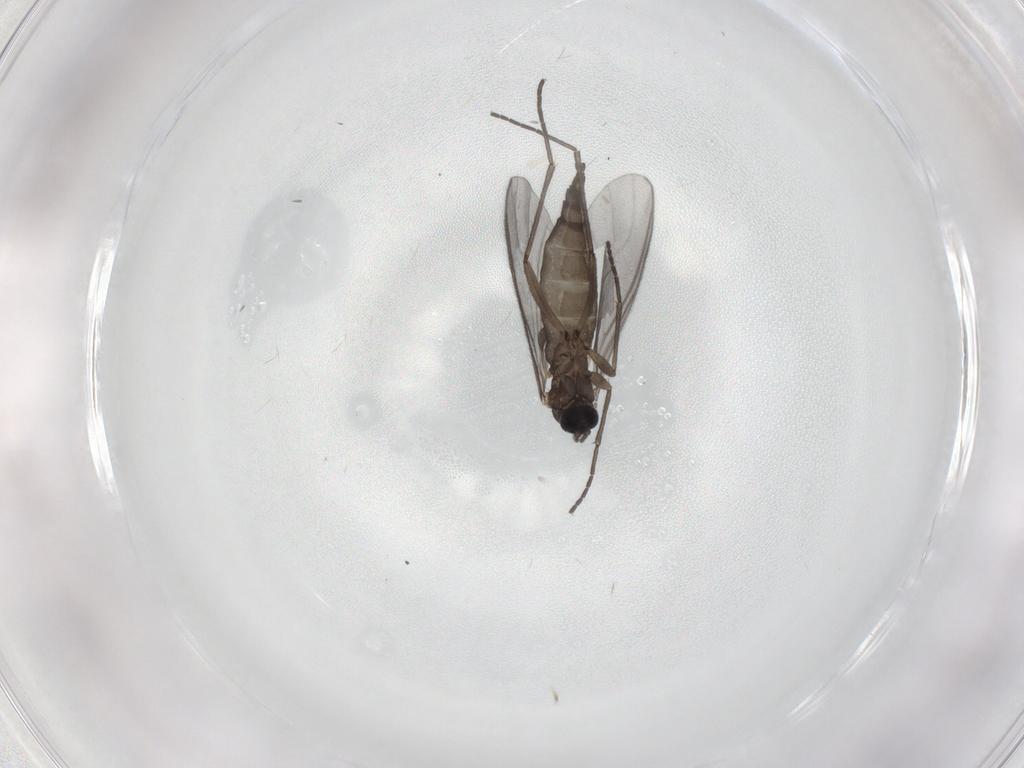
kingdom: Animalia
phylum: Arthropoda
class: Insecta
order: Diptera
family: Sciaridae
